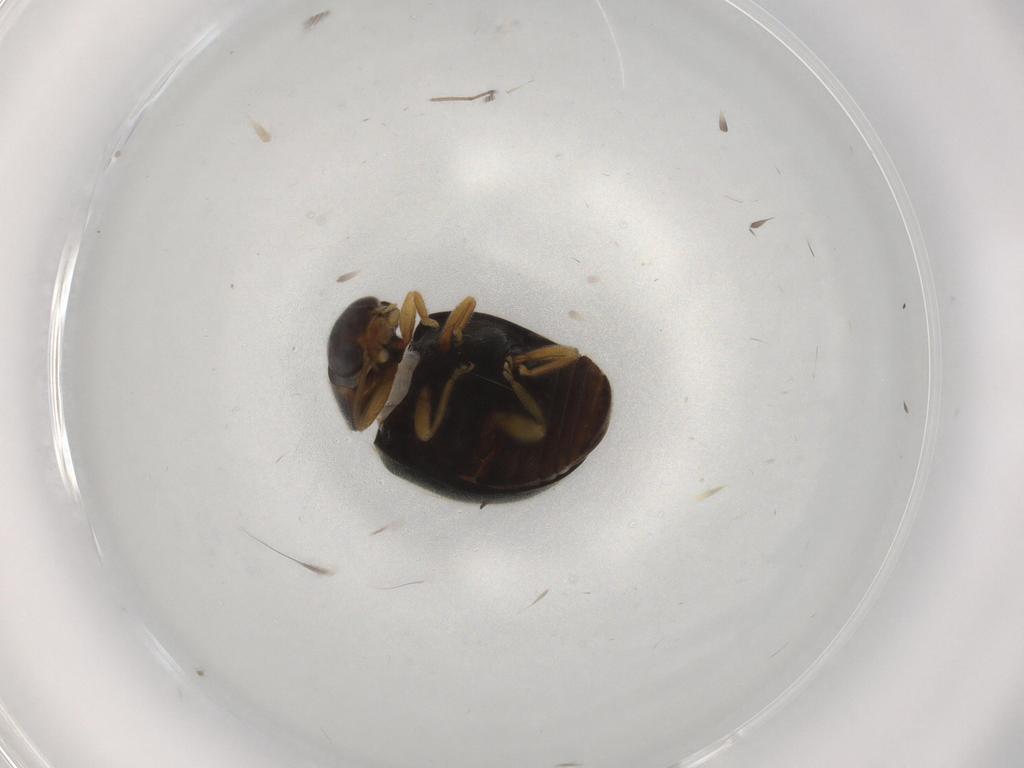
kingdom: Animalia
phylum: Arthropoda
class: Insecta
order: Coleoptera
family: Coccinellidae
